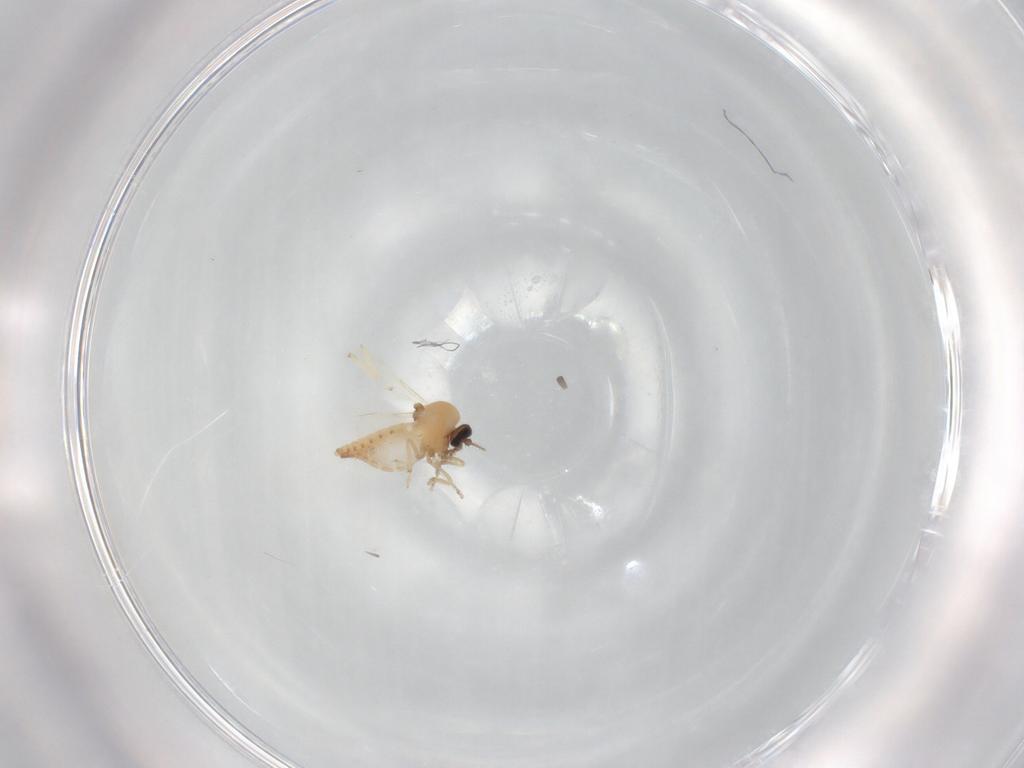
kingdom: Animalia
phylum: Arthropoda
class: Insecta
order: Diptera
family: Ceratopogonidae
